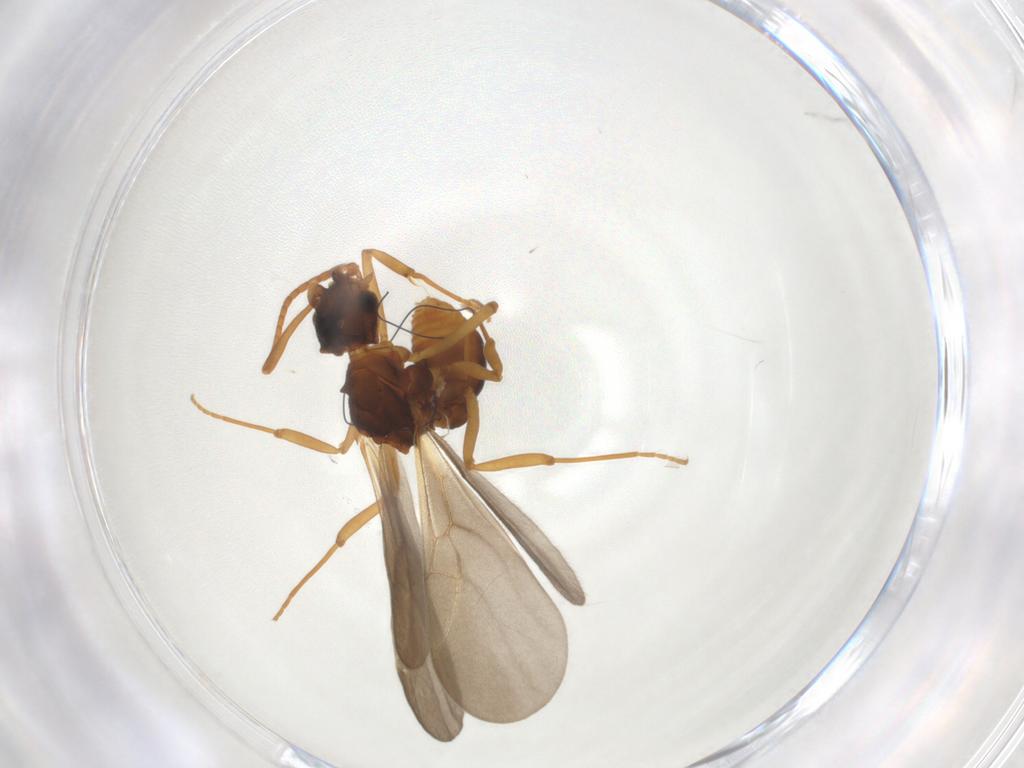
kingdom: Animalia
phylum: Arthropoda
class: Insecta
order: Hymenoptera
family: Formicidae
